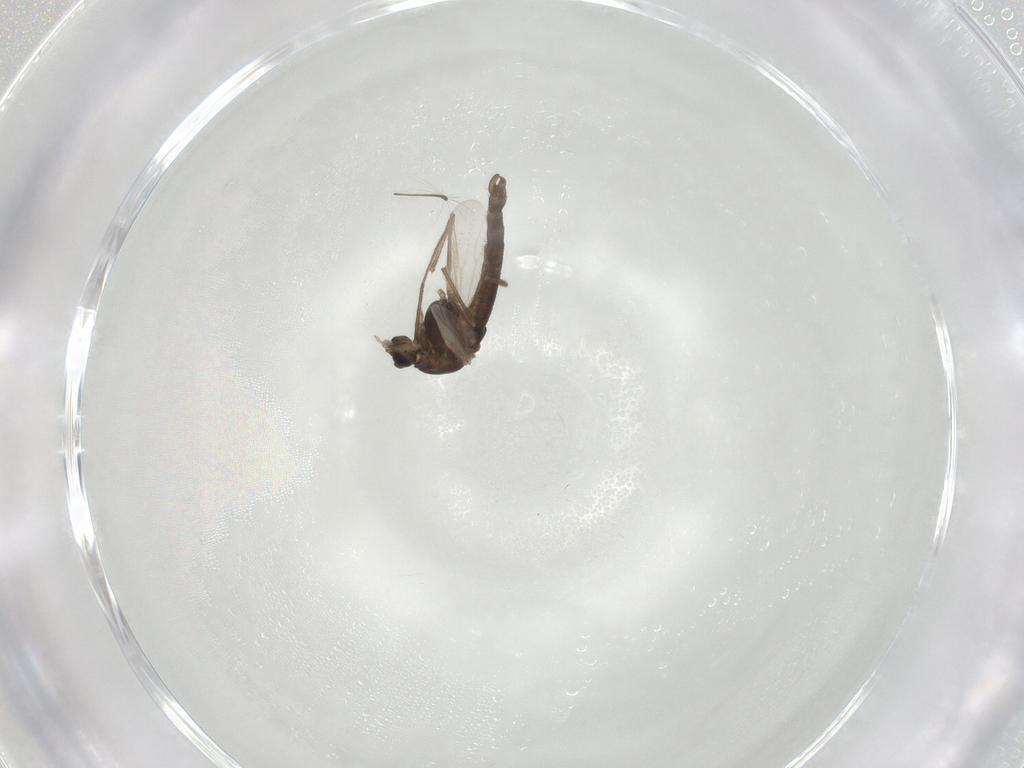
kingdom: Animalia
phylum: Arthropoda
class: Insecta
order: Diptera
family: Chironomidae
